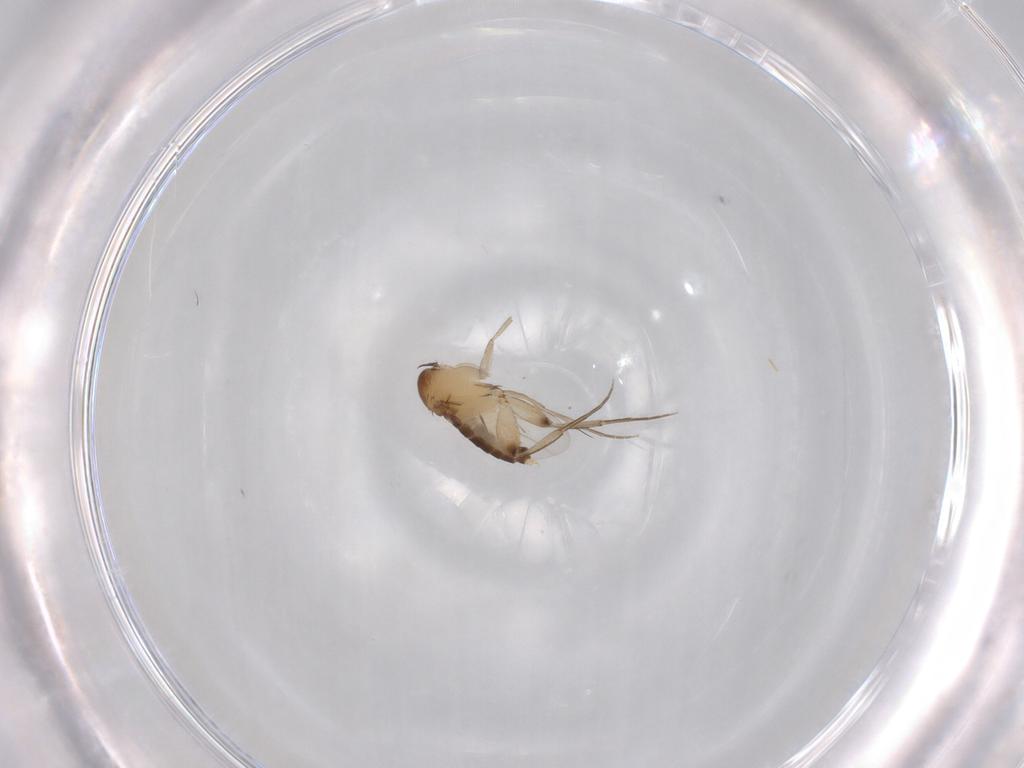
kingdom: Animalia
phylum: Arthropoda
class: Insecta
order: Diptera
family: Phoridae
